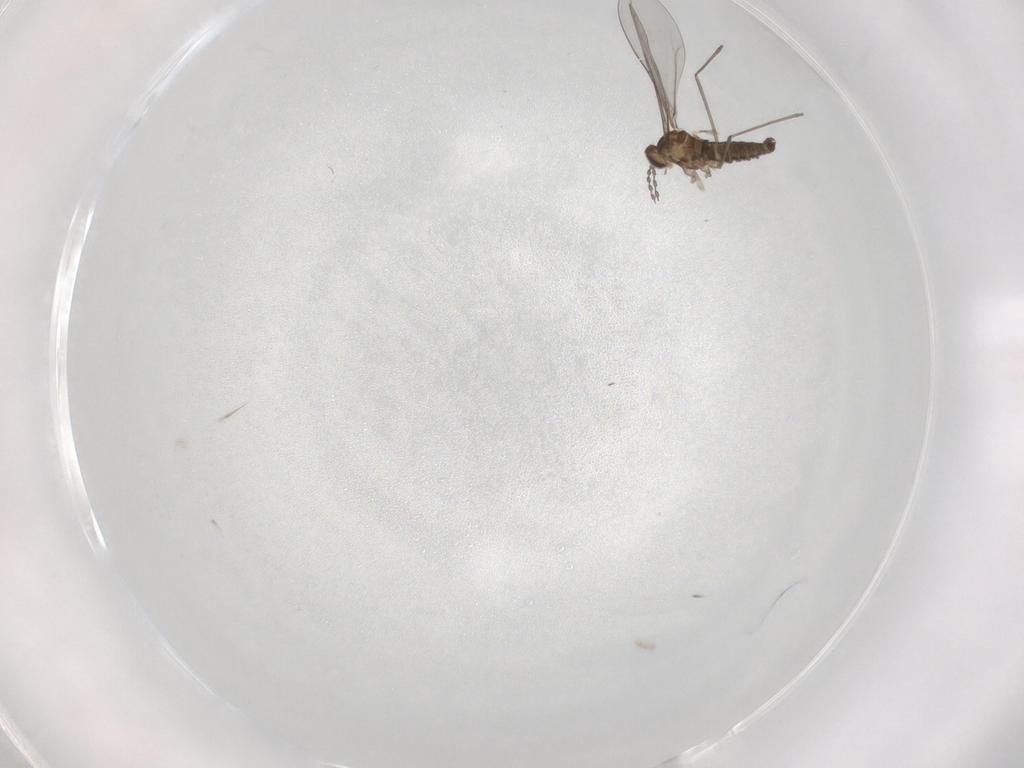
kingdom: Animalia
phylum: Arthropoda
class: Insecta
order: Diptera
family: Cecidomyiidae
